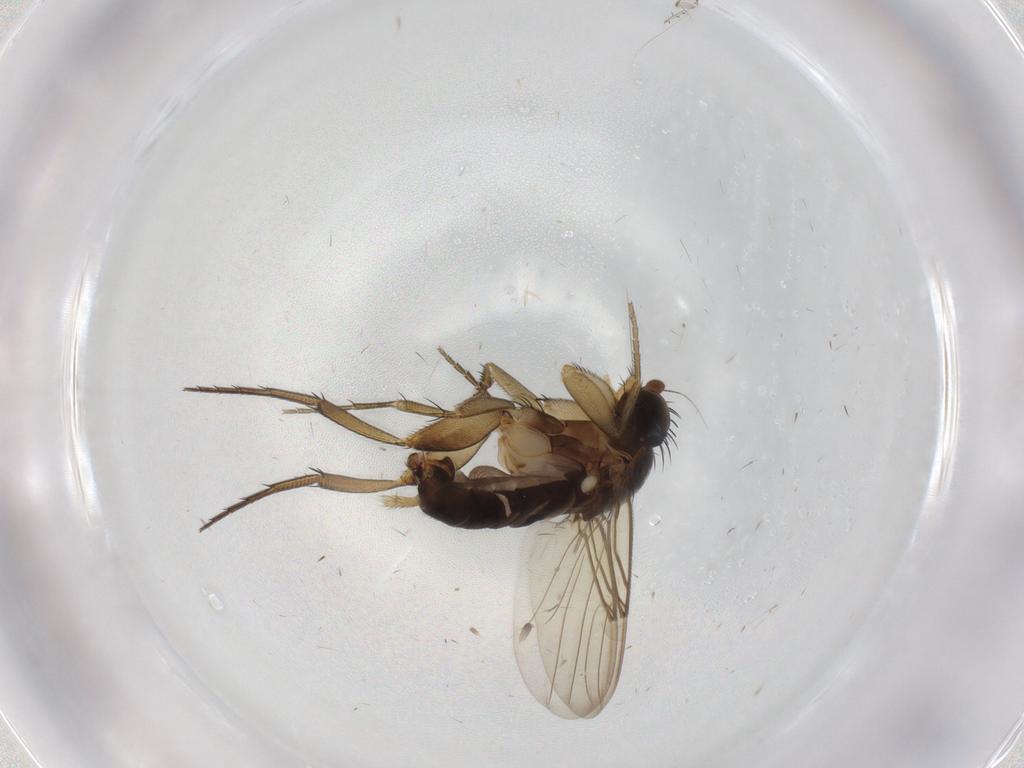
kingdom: Animalia
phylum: Arthropoda
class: Insecta
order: Diptera
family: Phoridae
